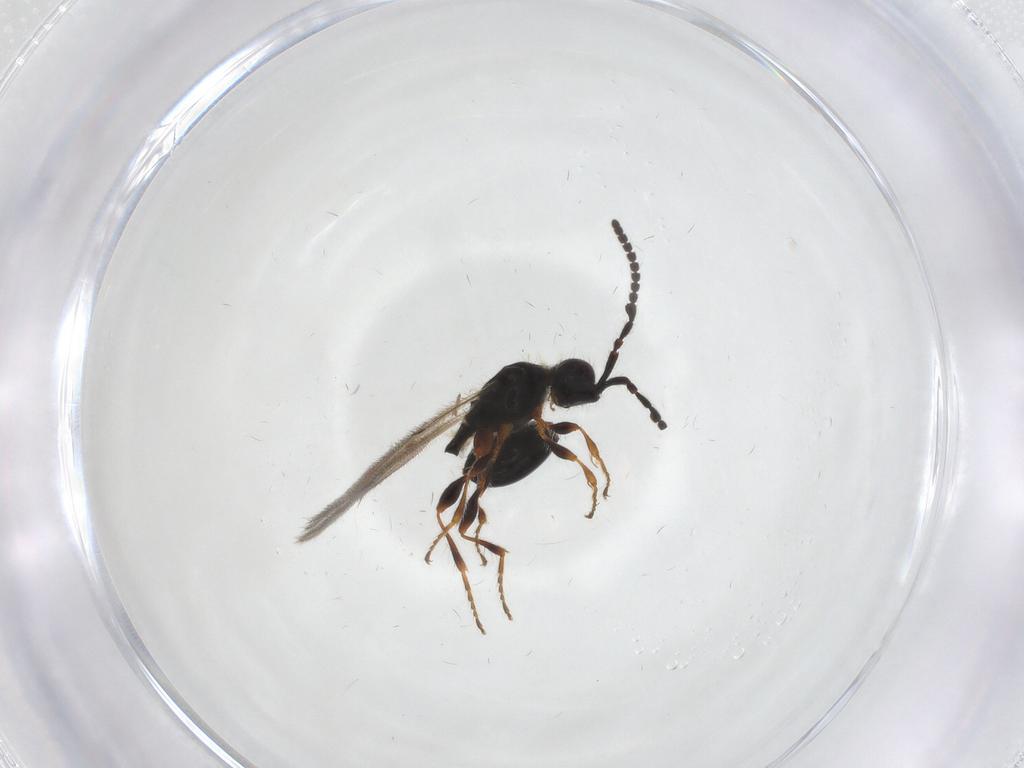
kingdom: Animalia
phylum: Arthropoda
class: Insecta
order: Hymenoptera
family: Diapriidae
